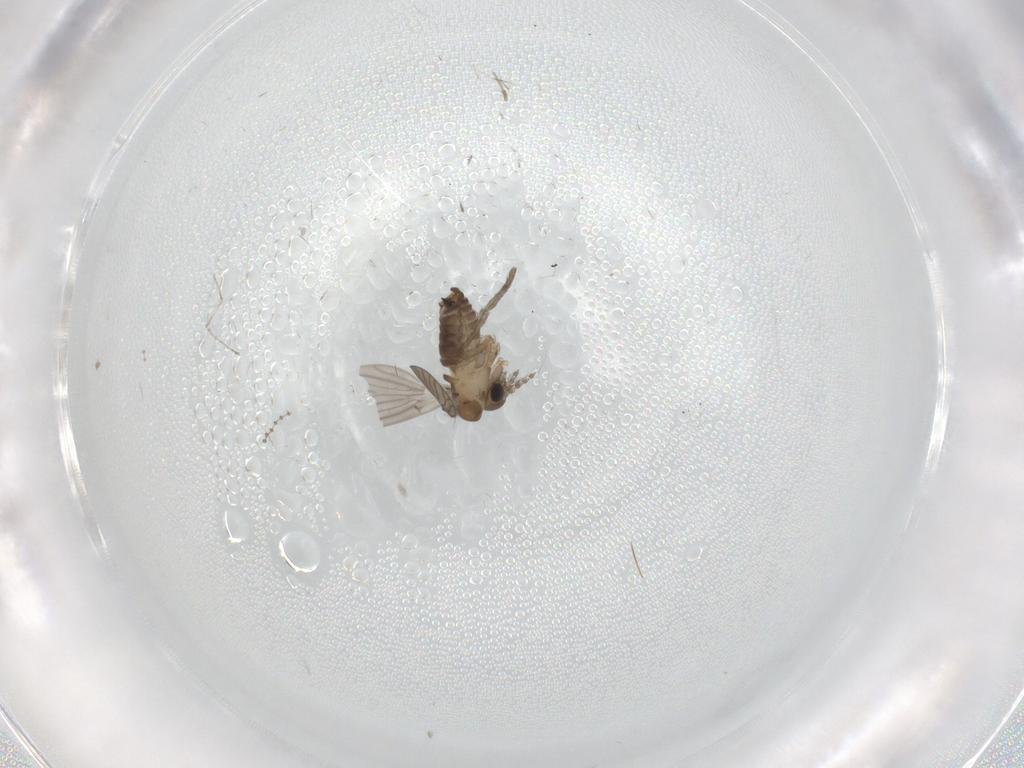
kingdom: Animalia
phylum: Arthropoda
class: Insecta
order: Diptera
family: Chironomidae
